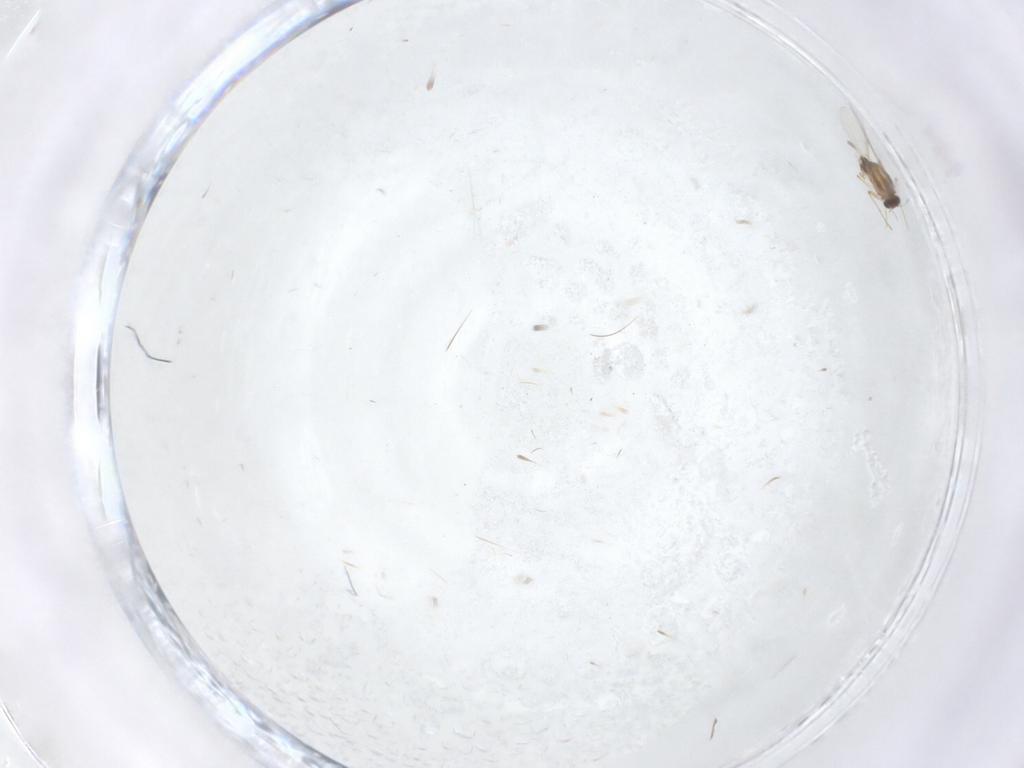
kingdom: Animalia
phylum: Arthropoda
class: Insecta
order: Diptera
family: Cecidomyiidae
